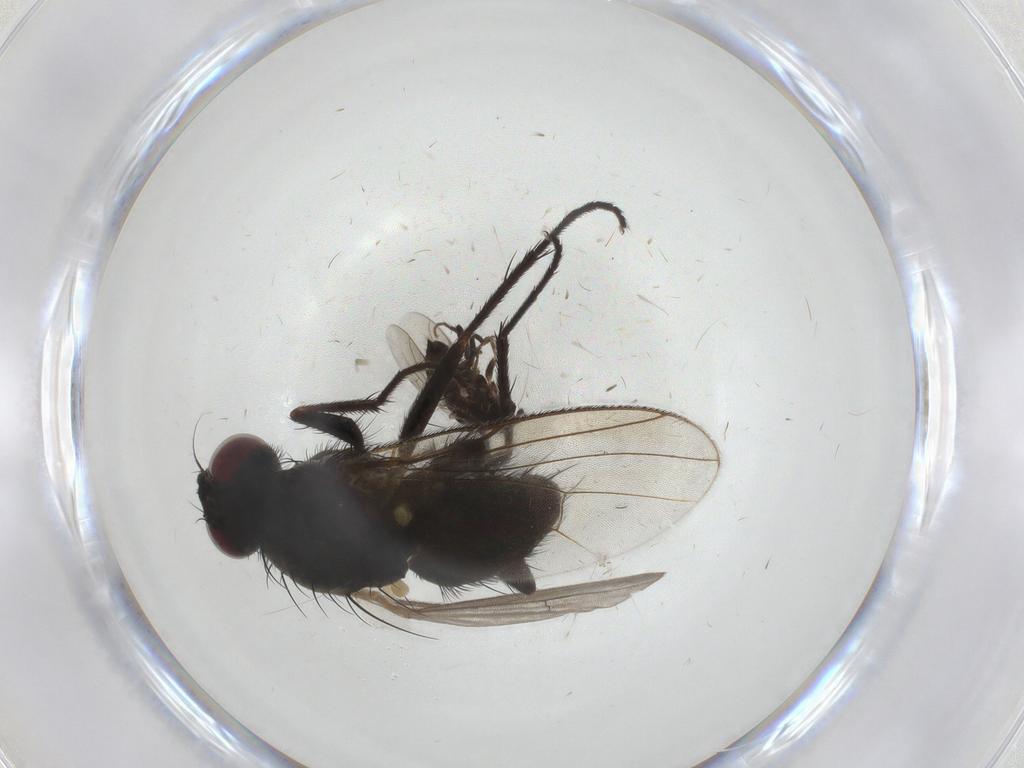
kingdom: Animalia
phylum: Arthropoda
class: Insecta
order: Diptera
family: Muscidae
